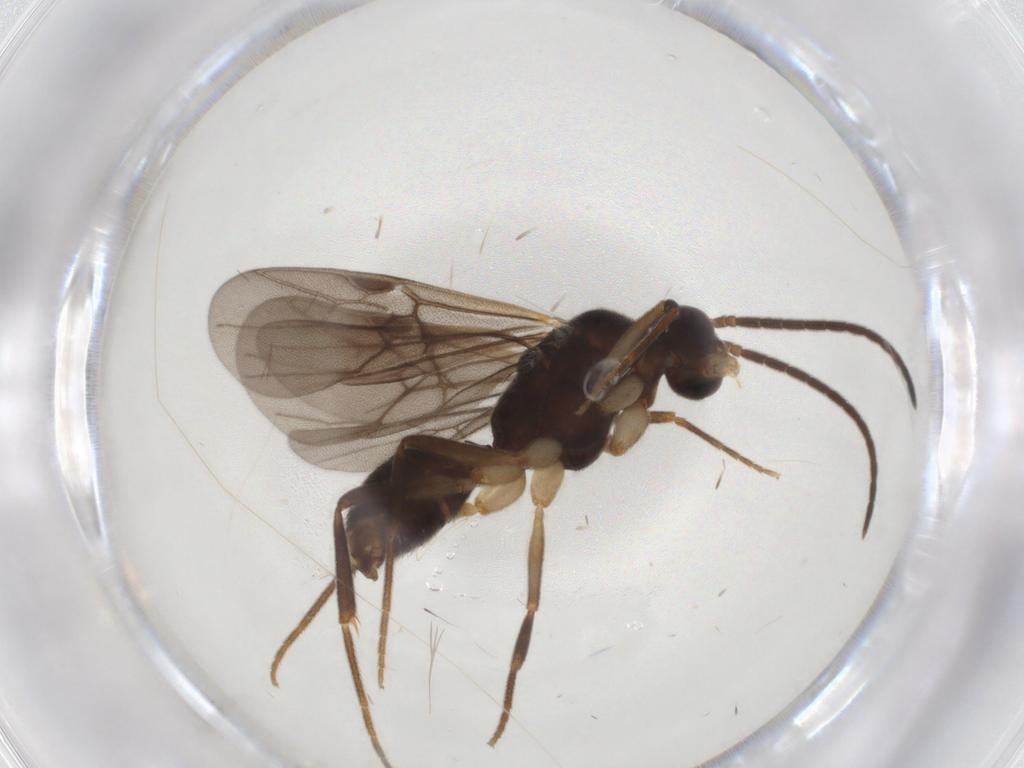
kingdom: Animalia
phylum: Arthropoda
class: Insecta
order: Hymenoptera
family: Formicidae
